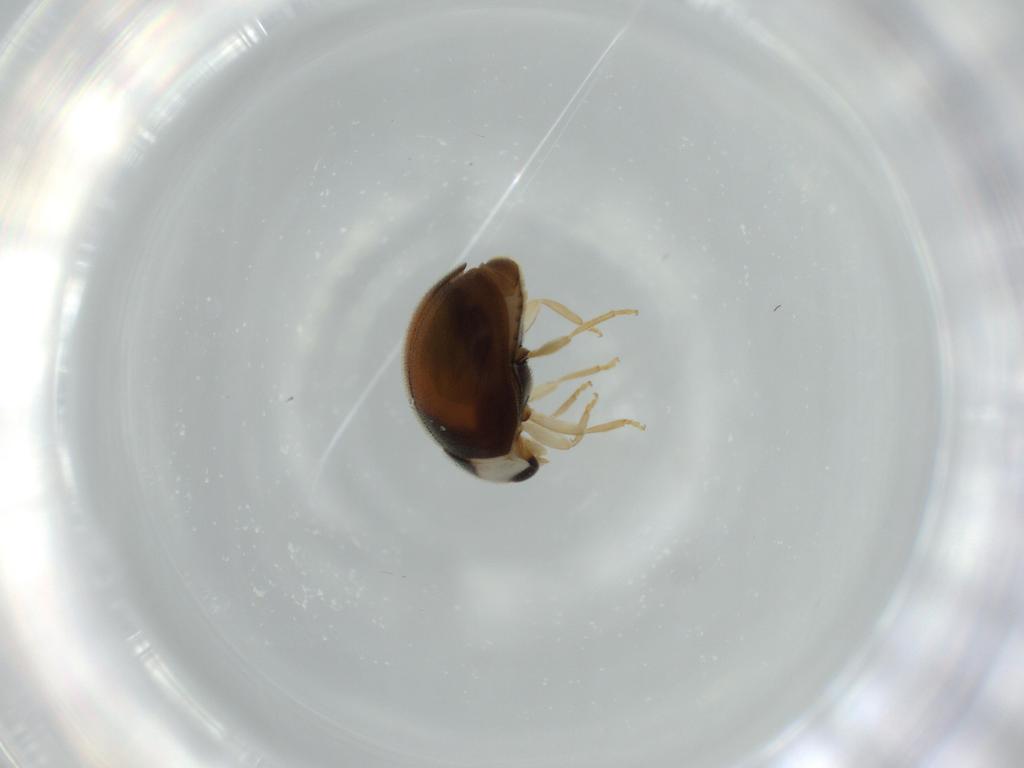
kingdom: Animalia
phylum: Arthropoda
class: Insecta
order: Coleoptera
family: Coccinellidae
